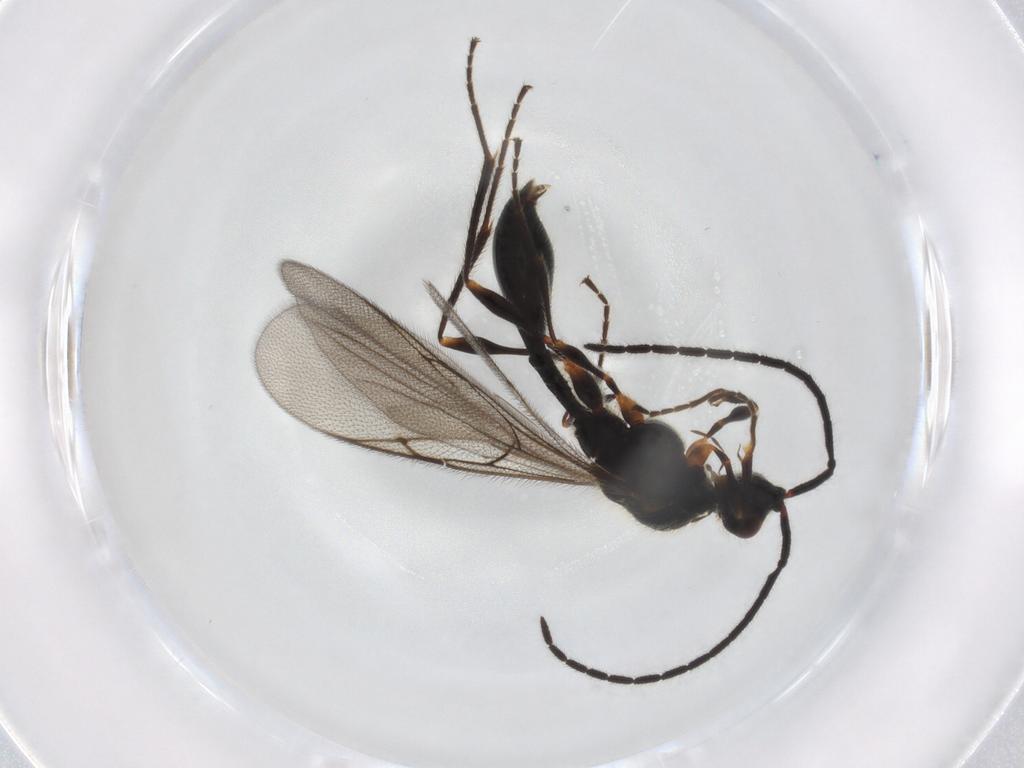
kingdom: Animalia
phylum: Arthropoda
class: Insecta
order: Hymenoptera
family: Diapriidae
